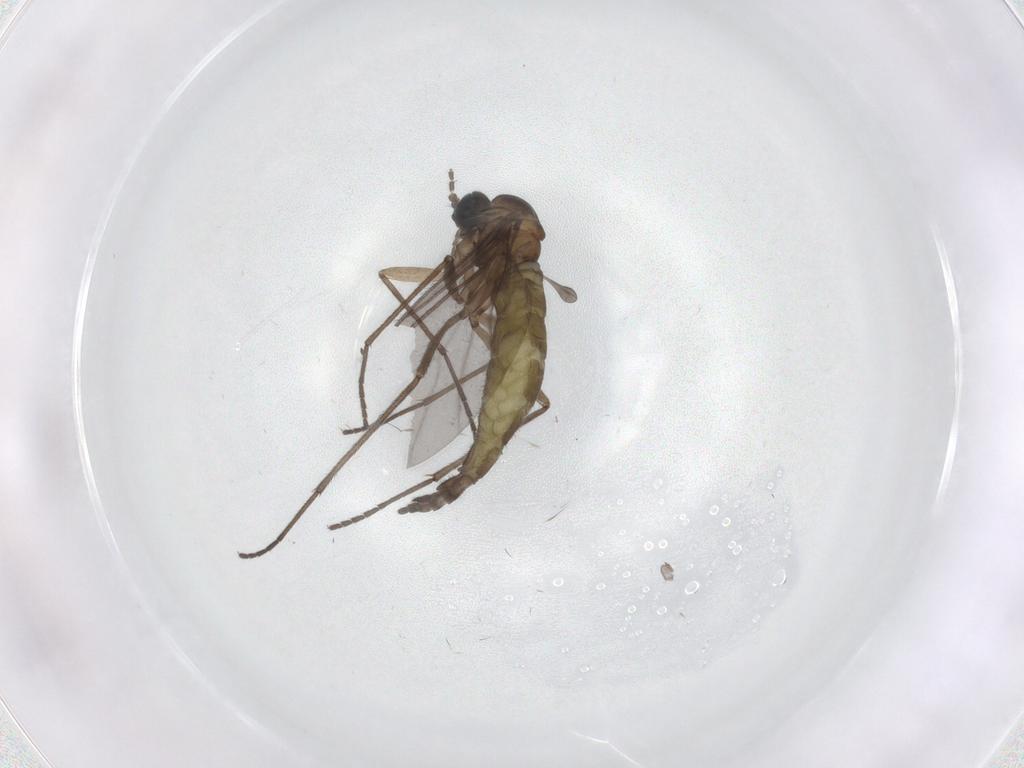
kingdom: Animalia
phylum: Arthropoda
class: Insecta
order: Diptera
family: Sciaridae
